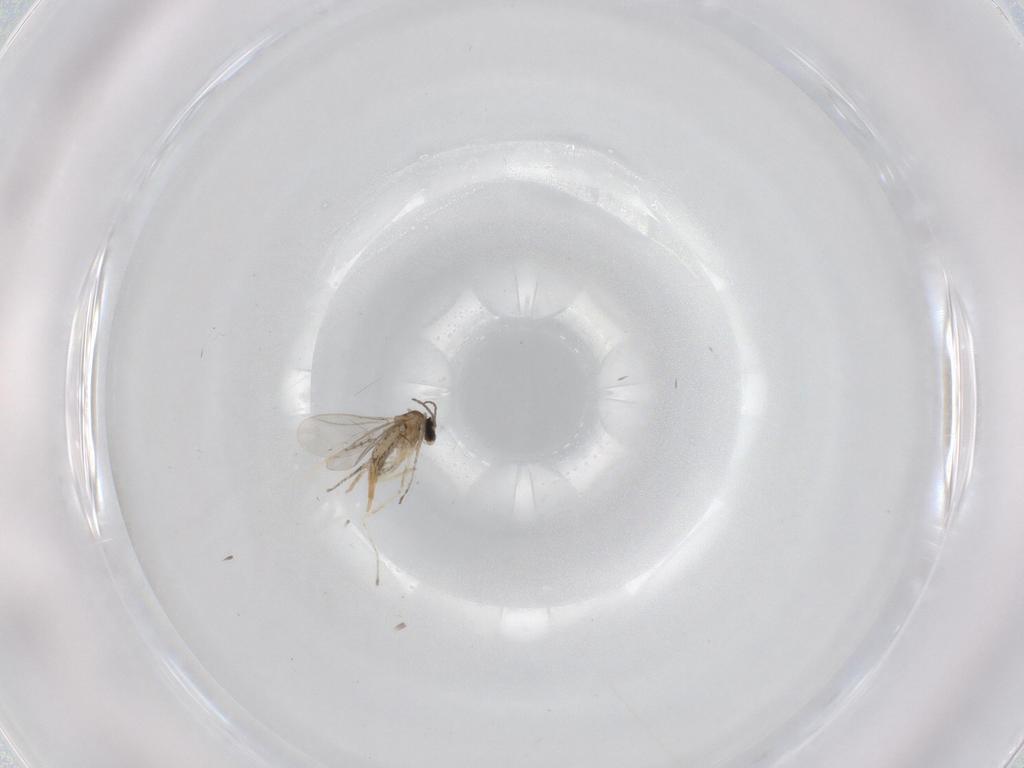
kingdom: Animalia
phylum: Arthropoda
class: Insecta
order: Diptera
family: Cecidomyiidae
